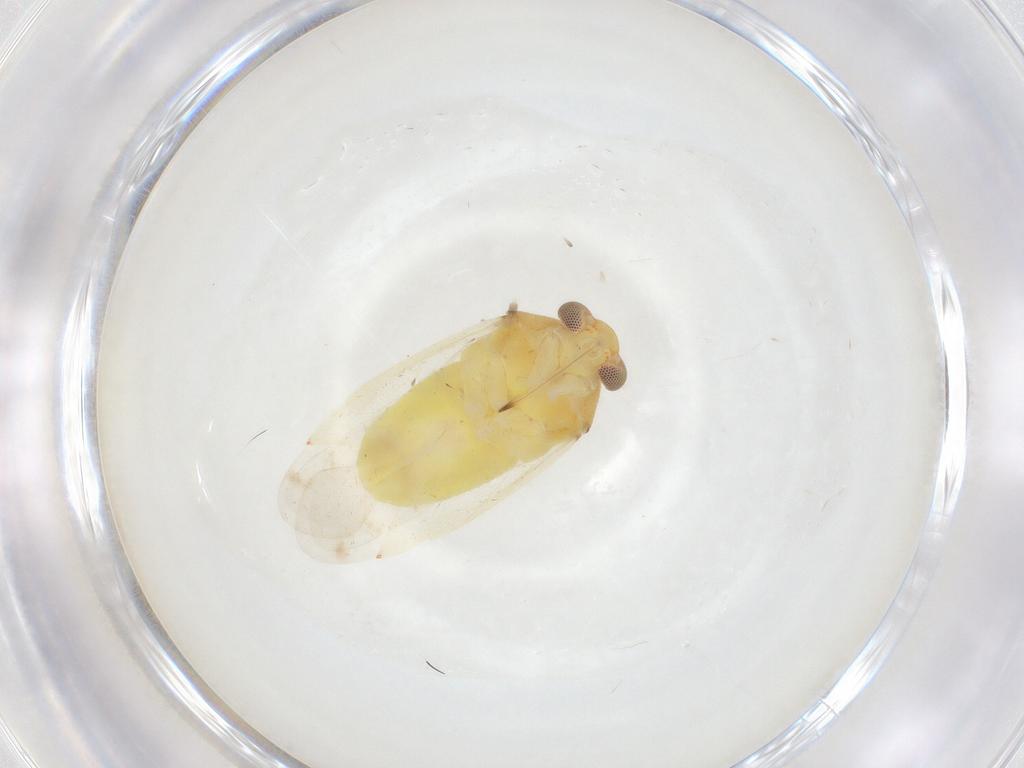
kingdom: Animalia
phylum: Arthropoda
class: Insecta
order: Hemiptera
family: Miridae
